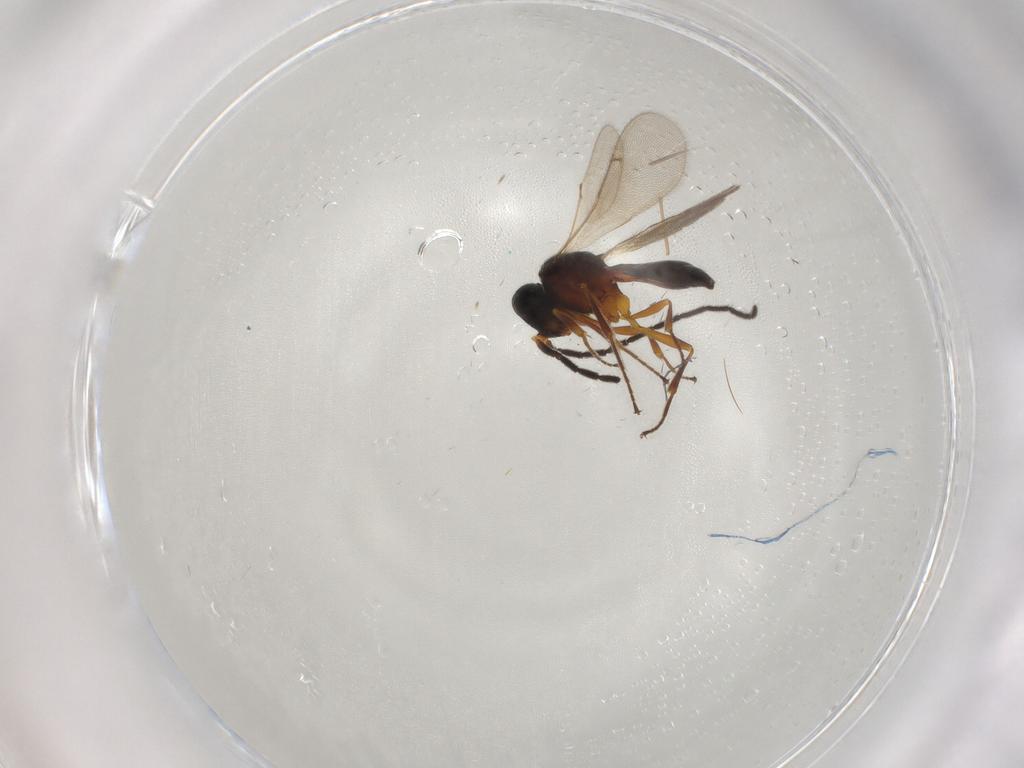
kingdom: Animalia
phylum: Arthropoda
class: Insecta
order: Hymenoptera
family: Scelionidae
